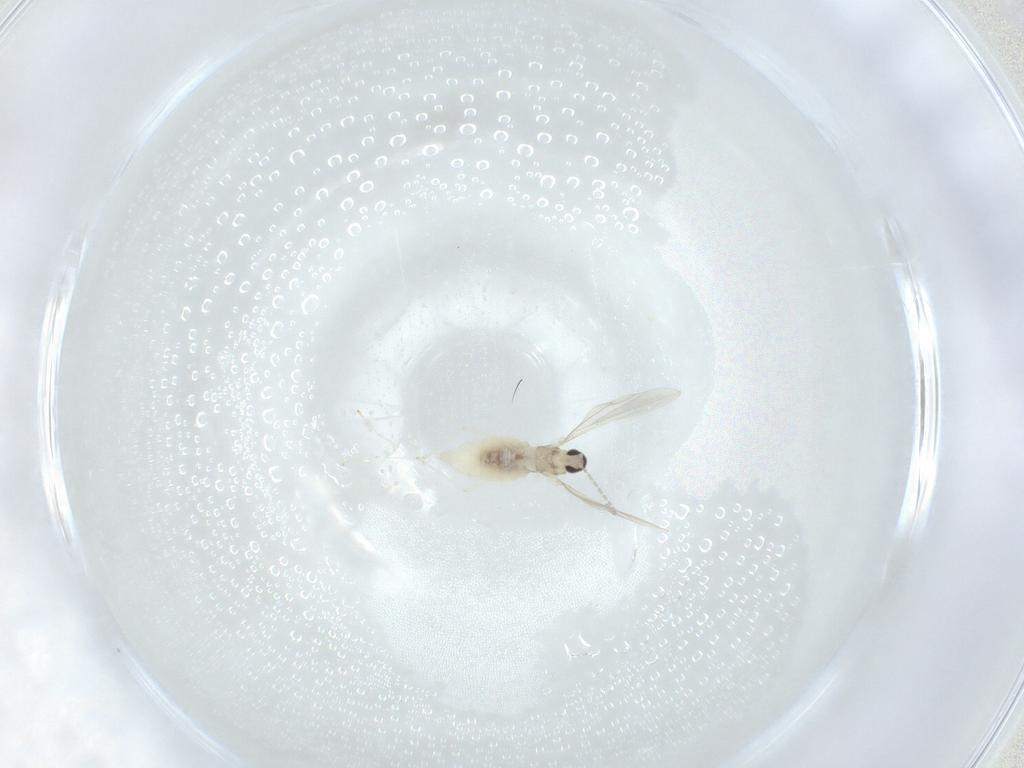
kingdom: Animalia
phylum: Arthropoda
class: Insecta
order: Diptera
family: Cecidomyiidae
